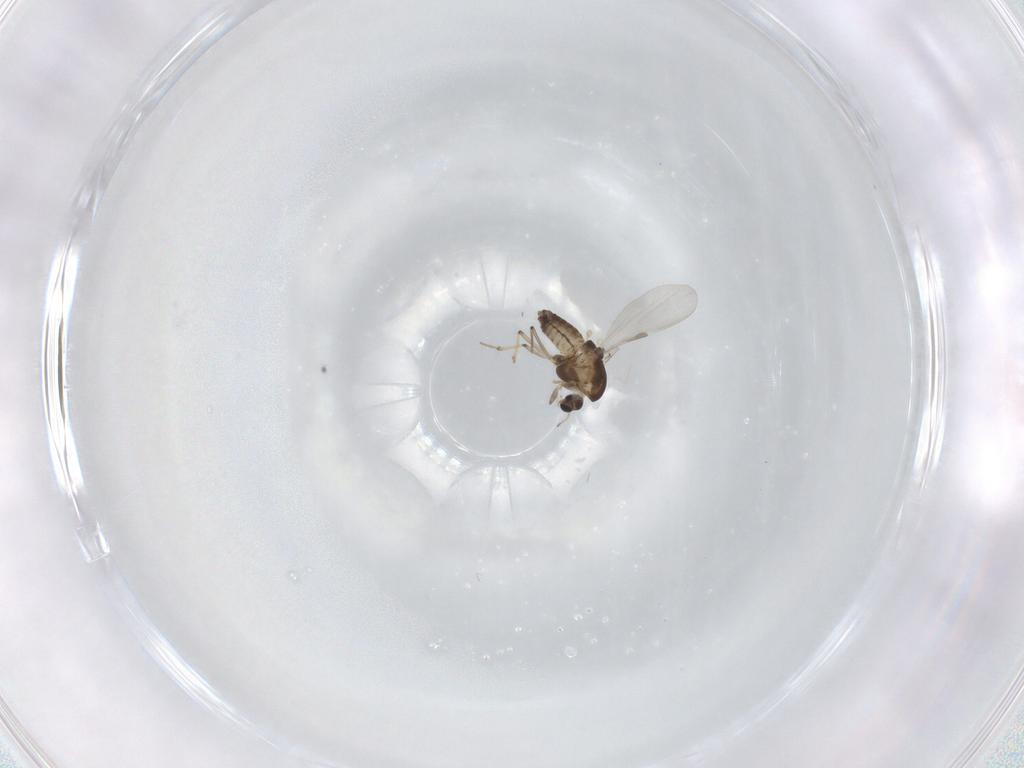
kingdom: Animalia
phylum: Arthropoda
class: Insecta
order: Diptera
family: Chironomidae
